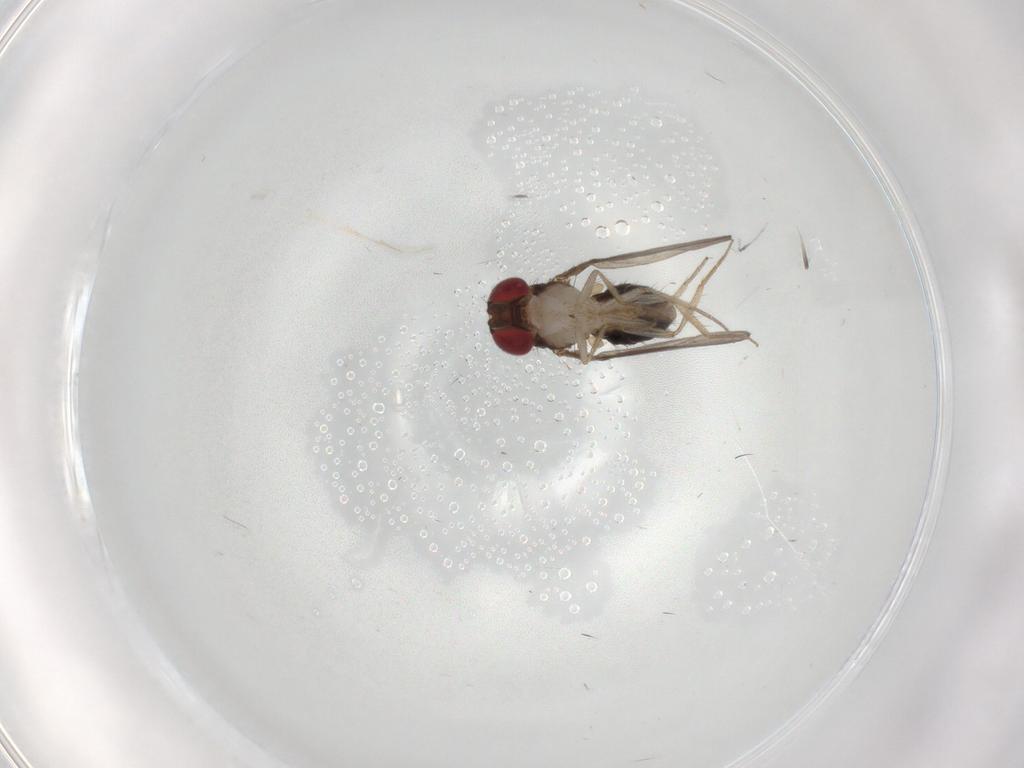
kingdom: Animalia
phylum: Arthropoda
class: Insecta
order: Diptera
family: Drosophilidae
